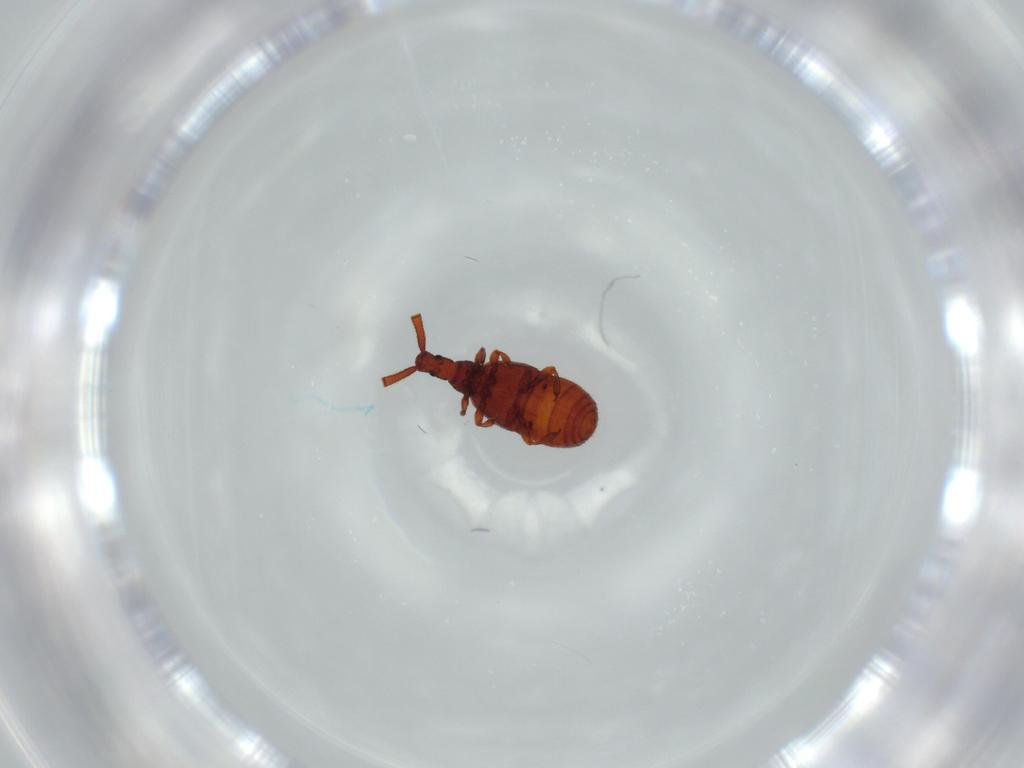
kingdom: Animalia
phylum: Arthropoda
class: Insecta
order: Coleoptera
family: Staphylinidae
